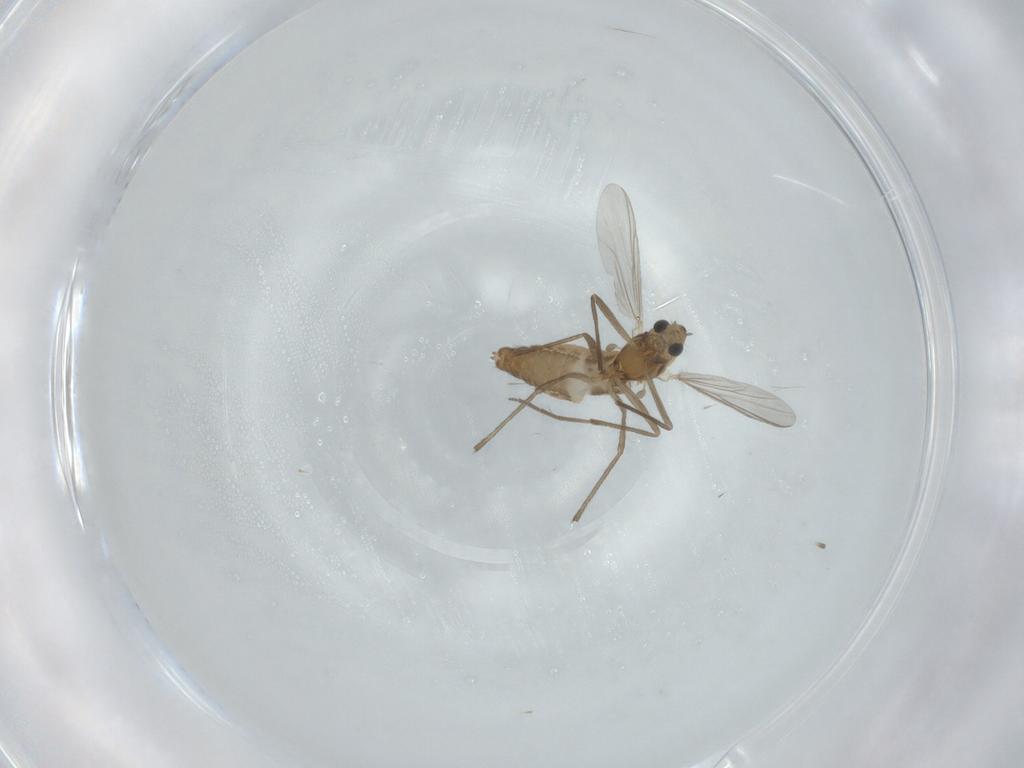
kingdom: Animalia
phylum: Arthropoda
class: Insecta
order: Diptera
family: Chironomidae
